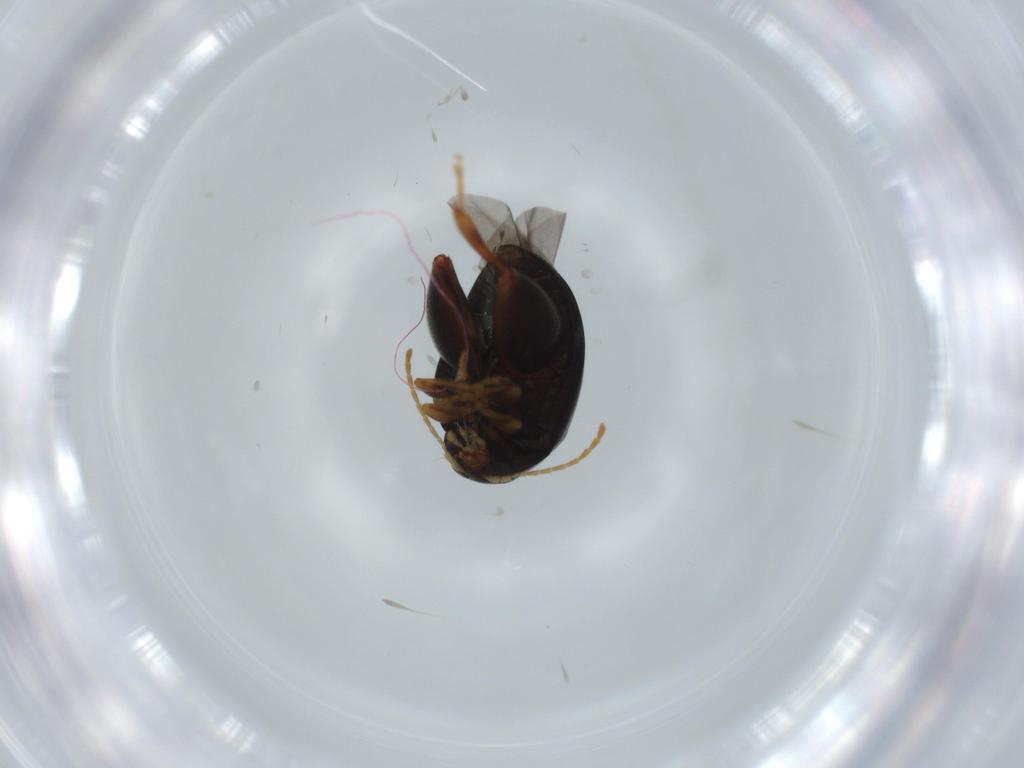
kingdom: Animalia
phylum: Arthropoda
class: Insecta
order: Coleoptera
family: Chrysomelidae
